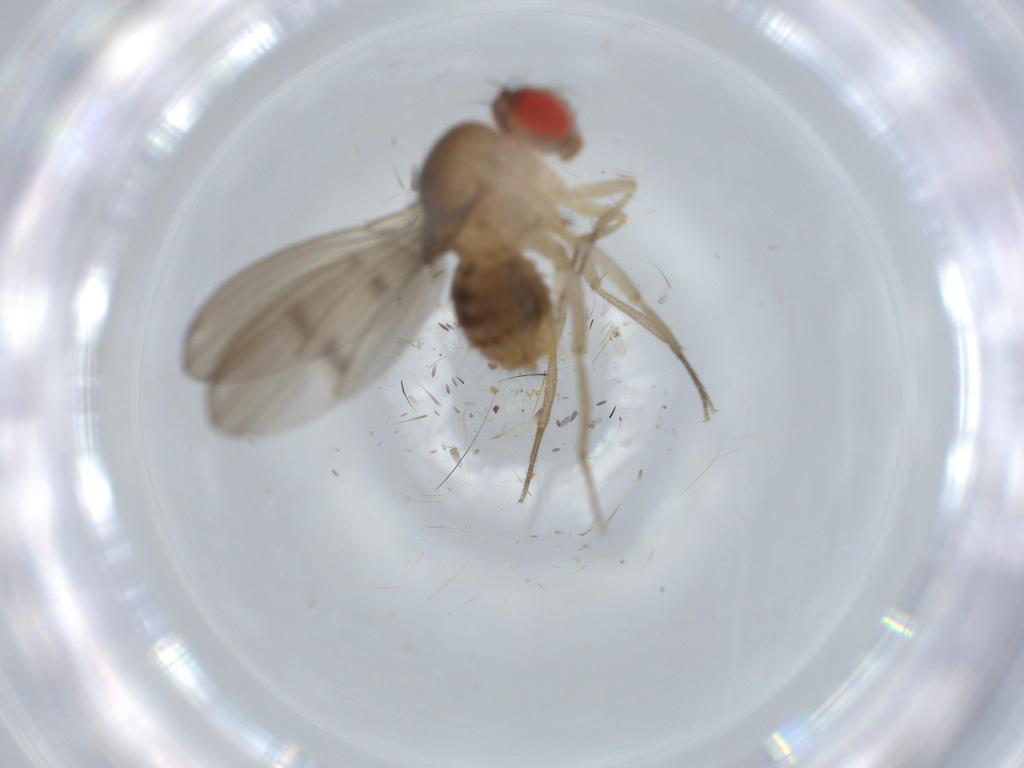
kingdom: Animalia
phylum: Arthropoda
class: Insecta
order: Diptera
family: Drosophilidae
